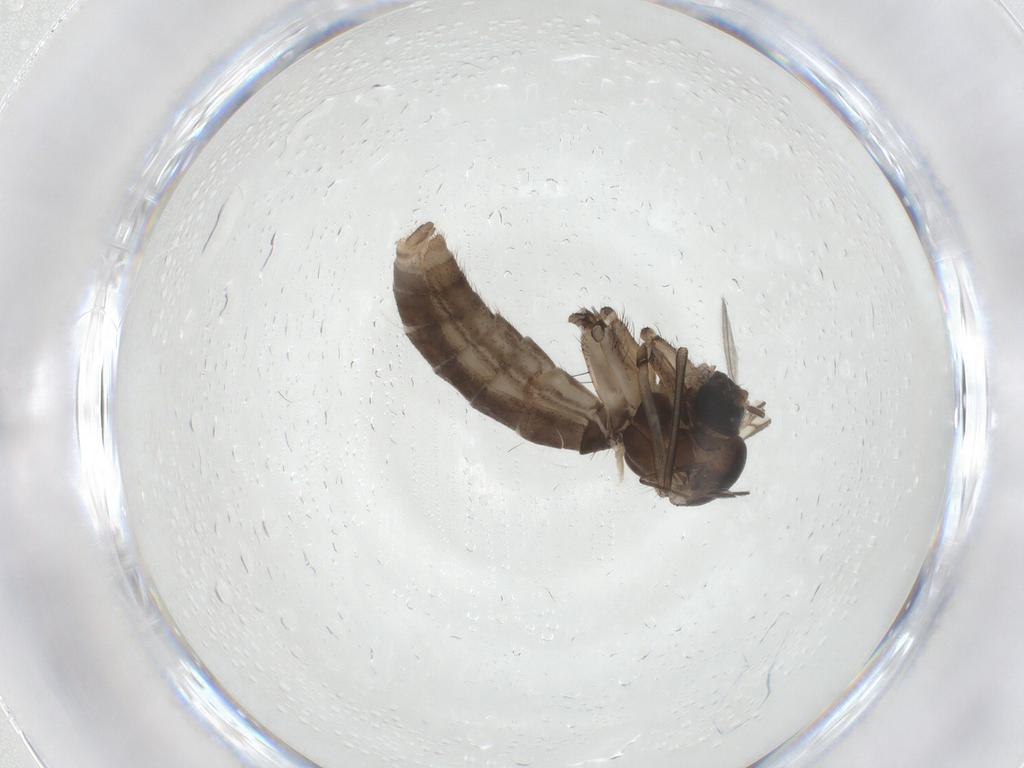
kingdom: Animalia
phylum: Arthropoda
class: Insecta
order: Diptera
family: Mycetophilidae
